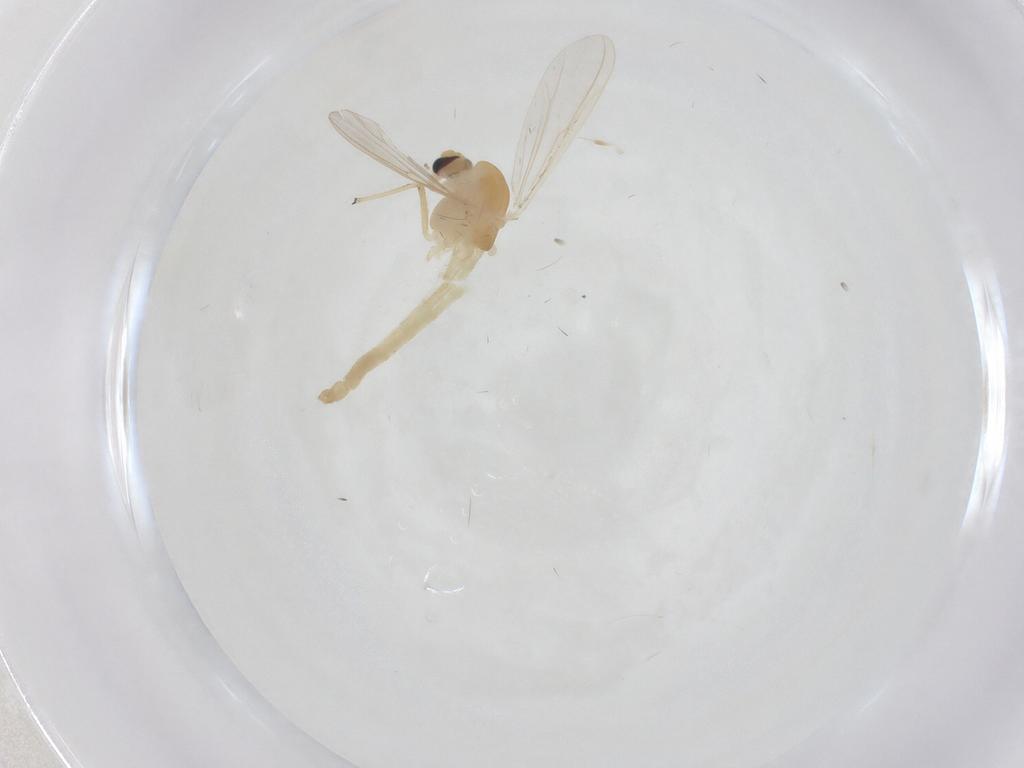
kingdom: Animalia
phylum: Arthropoda
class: Insecta
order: Diptera
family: Chironomidae
